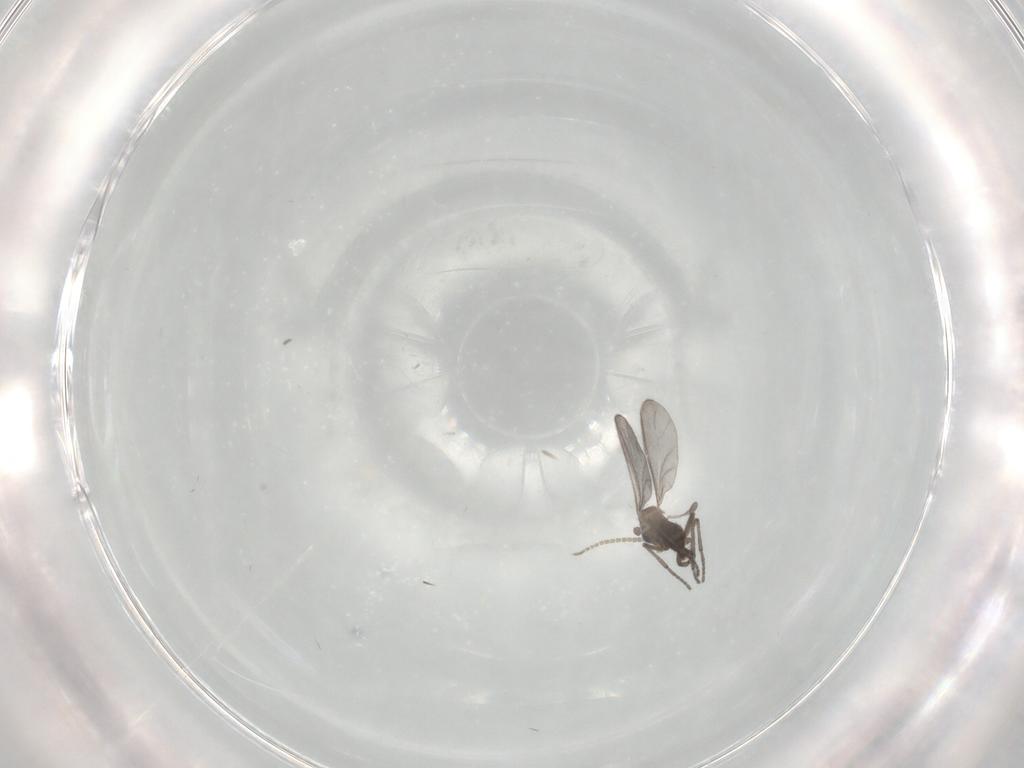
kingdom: Animalia
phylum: Arthropoda
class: Insecta
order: Diptera
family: Sciaridae
